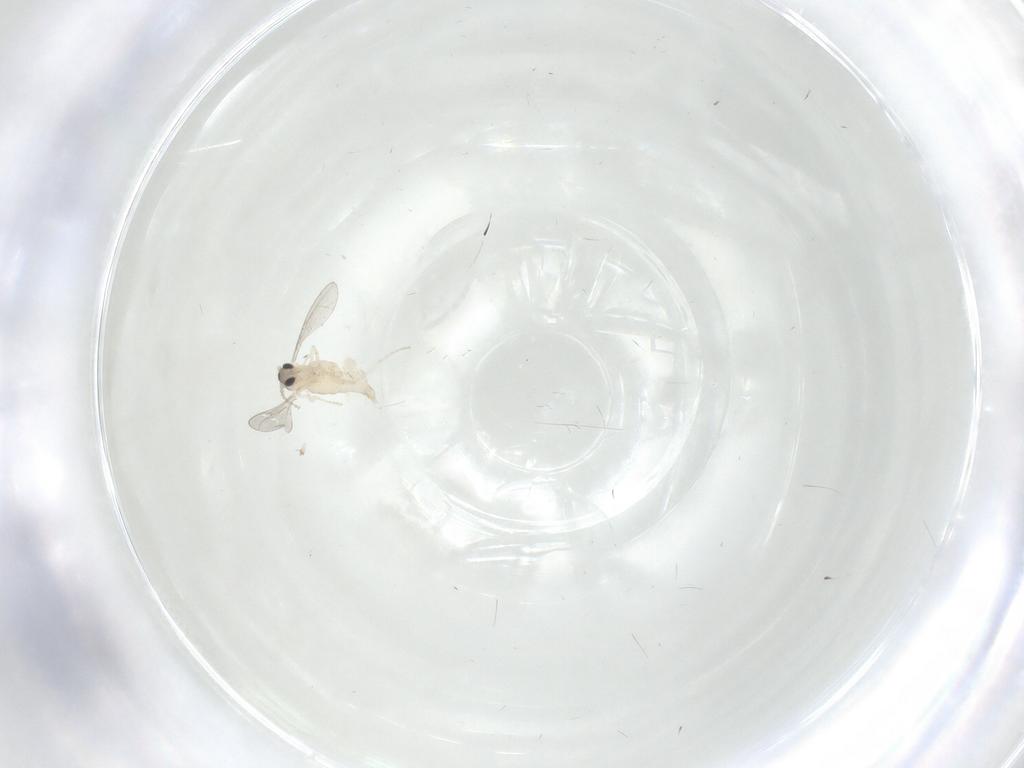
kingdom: Animalia
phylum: Arthropoda
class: Insecta
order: Diptera
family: Cecidomyiidae
